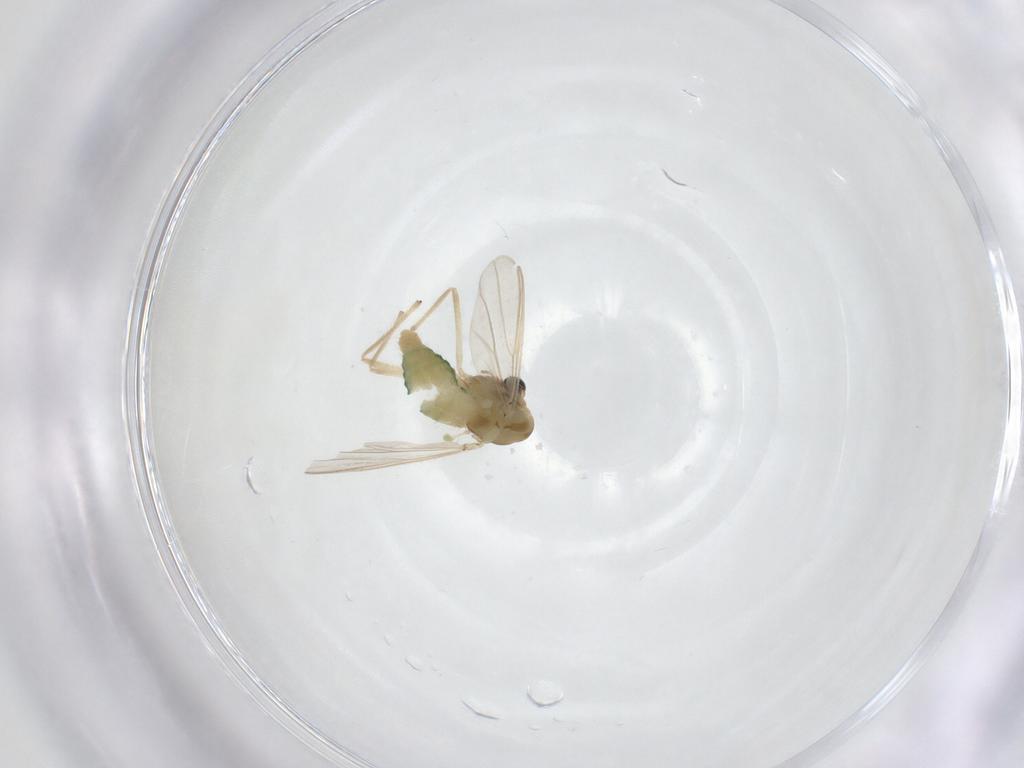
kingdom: Animalia
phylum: Arthropoda
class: Insecta
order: Diptera
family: Chironomidae
